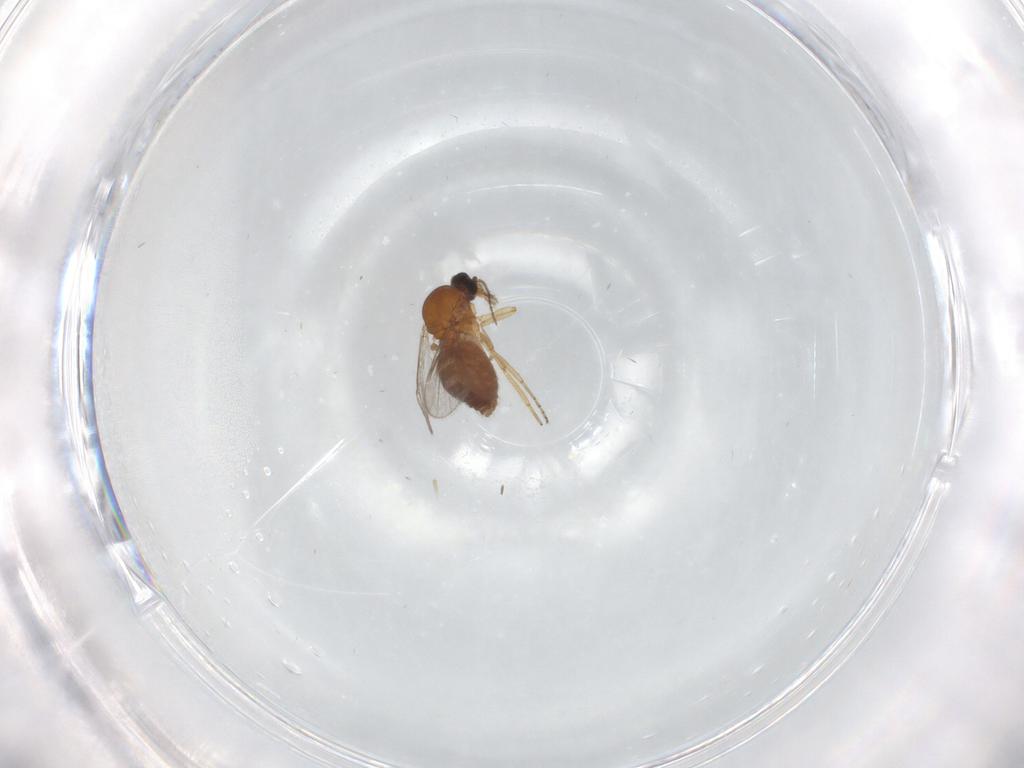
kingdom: Animalia
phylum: Arthropoda
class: Insecta
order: Diptera
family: Ceratopogonidae
